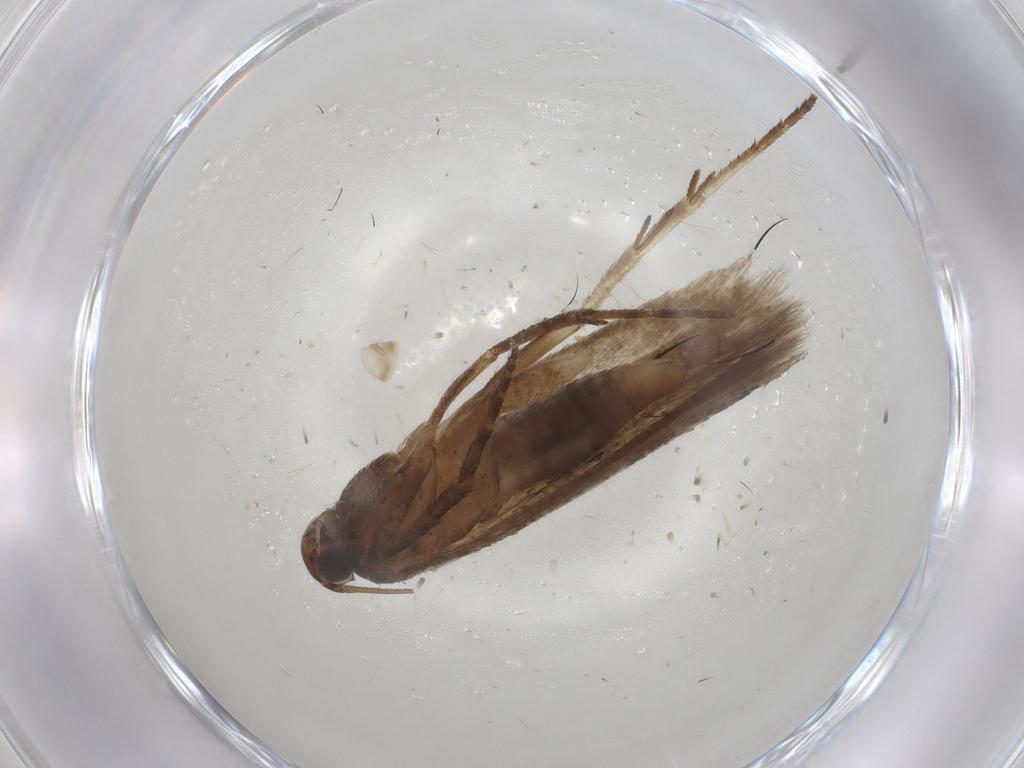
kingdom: Animalia
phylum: Arthropoda
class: Insecta
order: Lepidoptera
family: Gelechiidae
